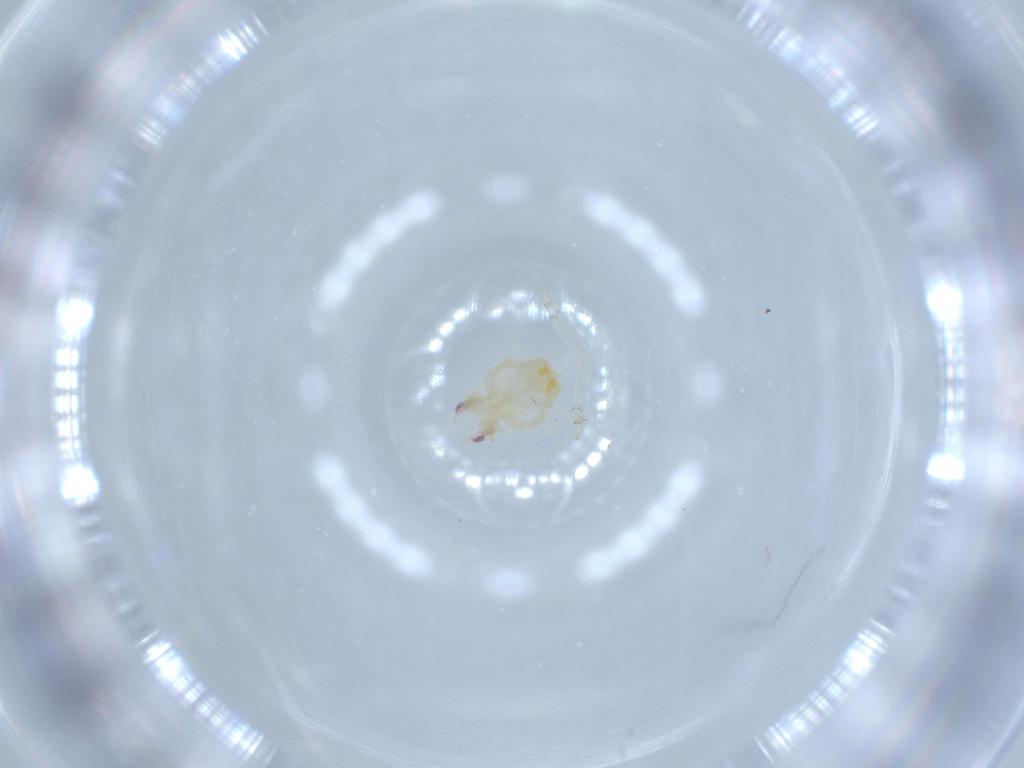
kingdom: Animalia
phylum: Arthropoda
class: Insecta
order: Hemiptera
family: Flatidae
